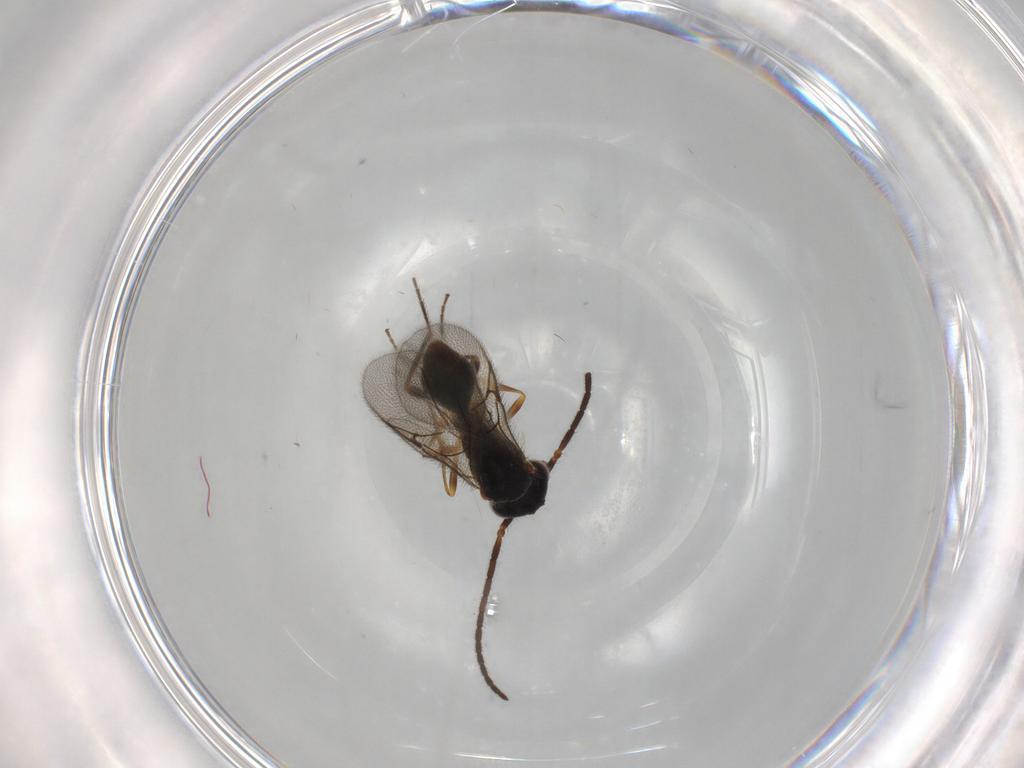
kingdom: Animalia
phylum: Arthropoda
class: Insecta
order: Hymenoptera
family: Diapriidae
